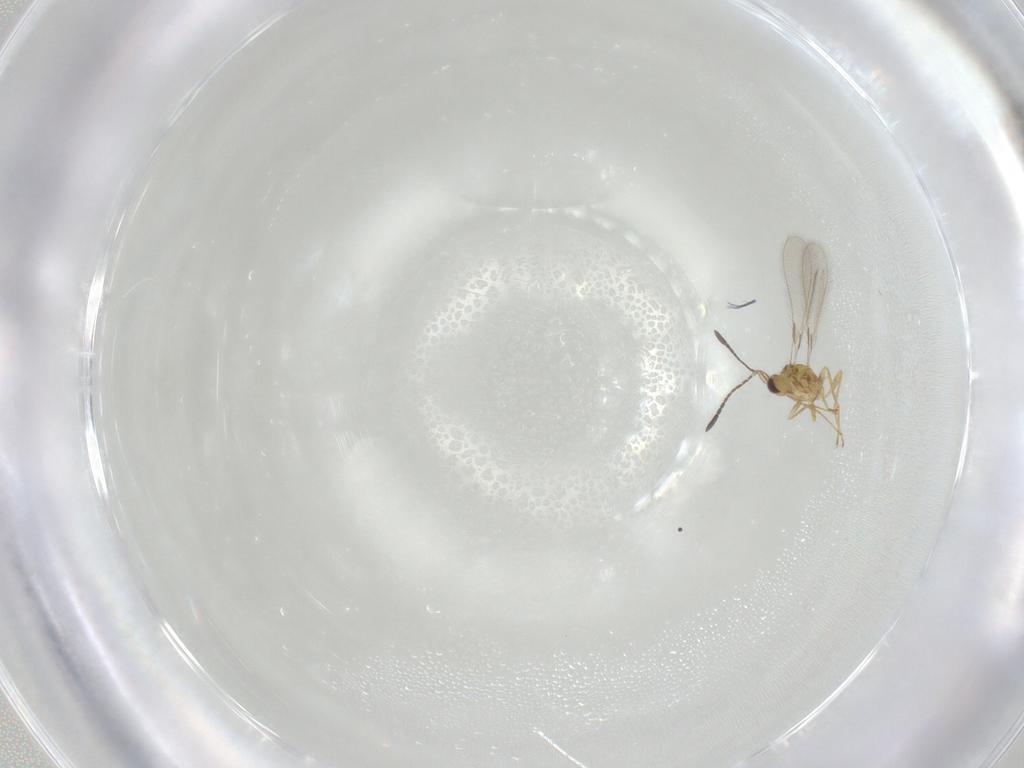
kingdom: Animalia
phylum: Arthropoda
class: Insecta
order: Hymenoptera
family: Mymaridae
